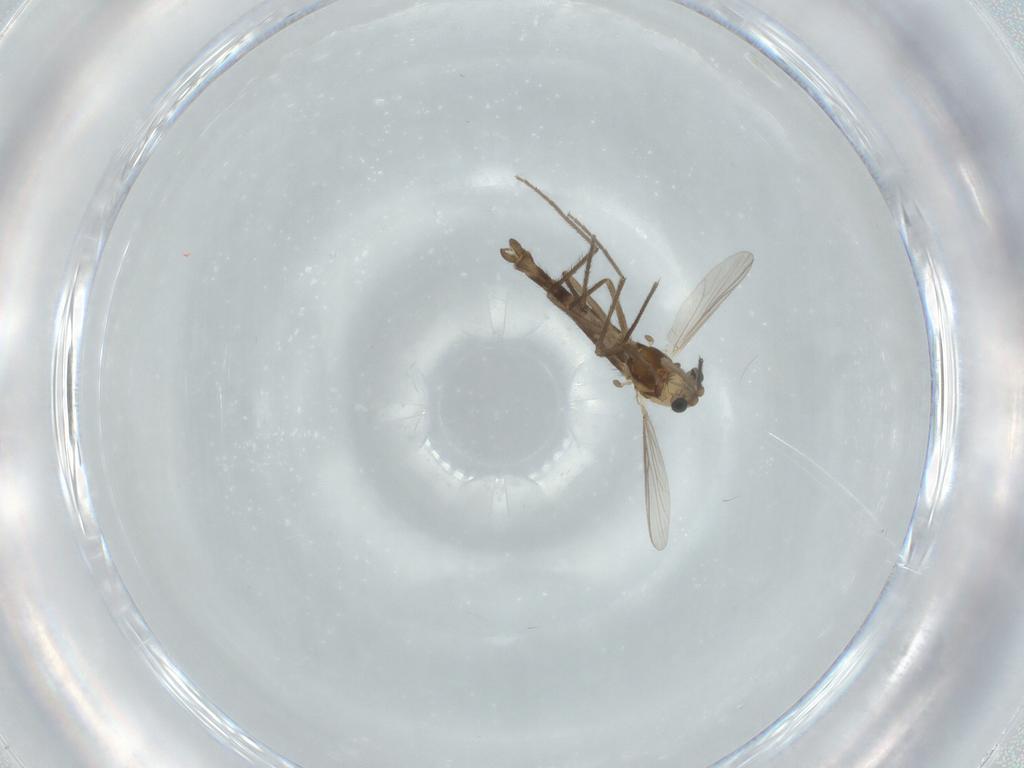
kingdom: Animalia
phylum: Arthropoda
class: Insecta
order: Diptera
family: Chironomidae
